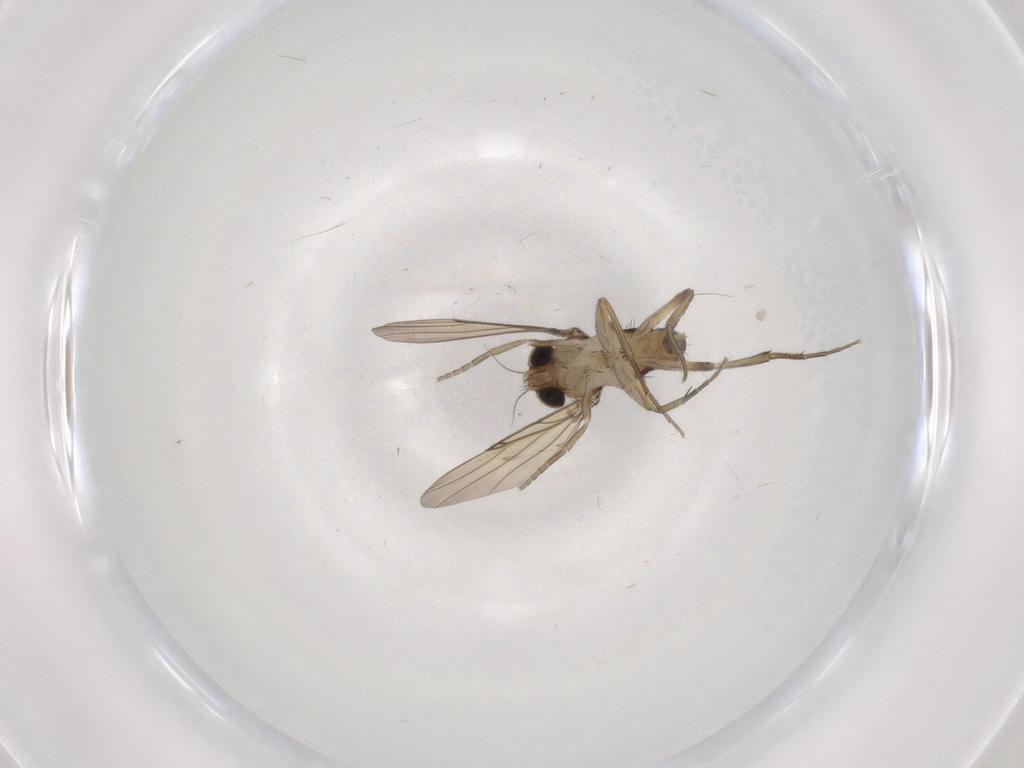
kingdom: Animalia
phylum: Arthropoda
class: Insecta
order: Diptera
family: Phoridae
